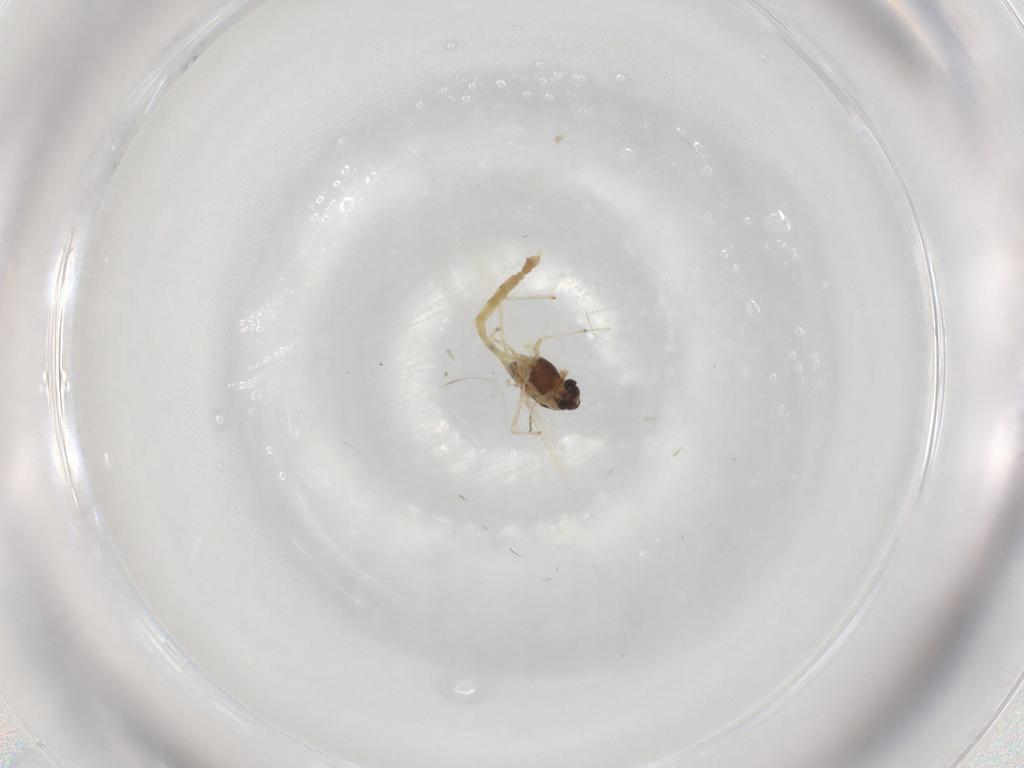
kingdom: Animalia
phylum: Arthropoda
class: Insecta
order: Diptera
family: Chironomidae
